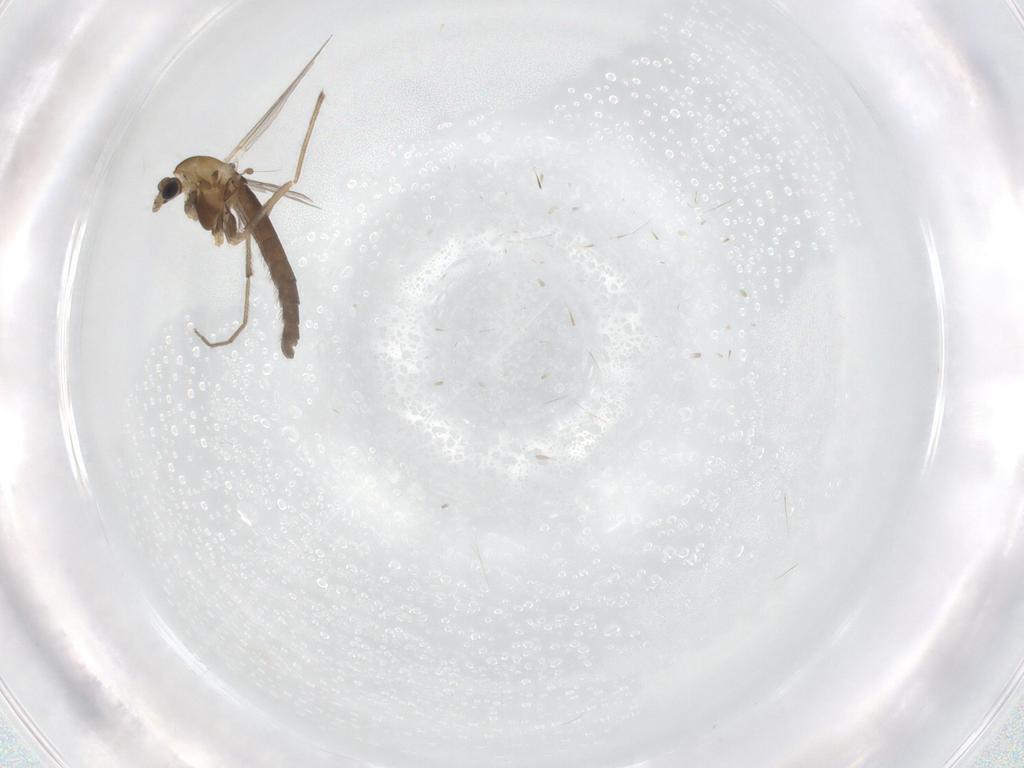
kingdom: Animalia
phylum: Arthropoda
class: Insecta
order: Diptera
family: Chironomidae
